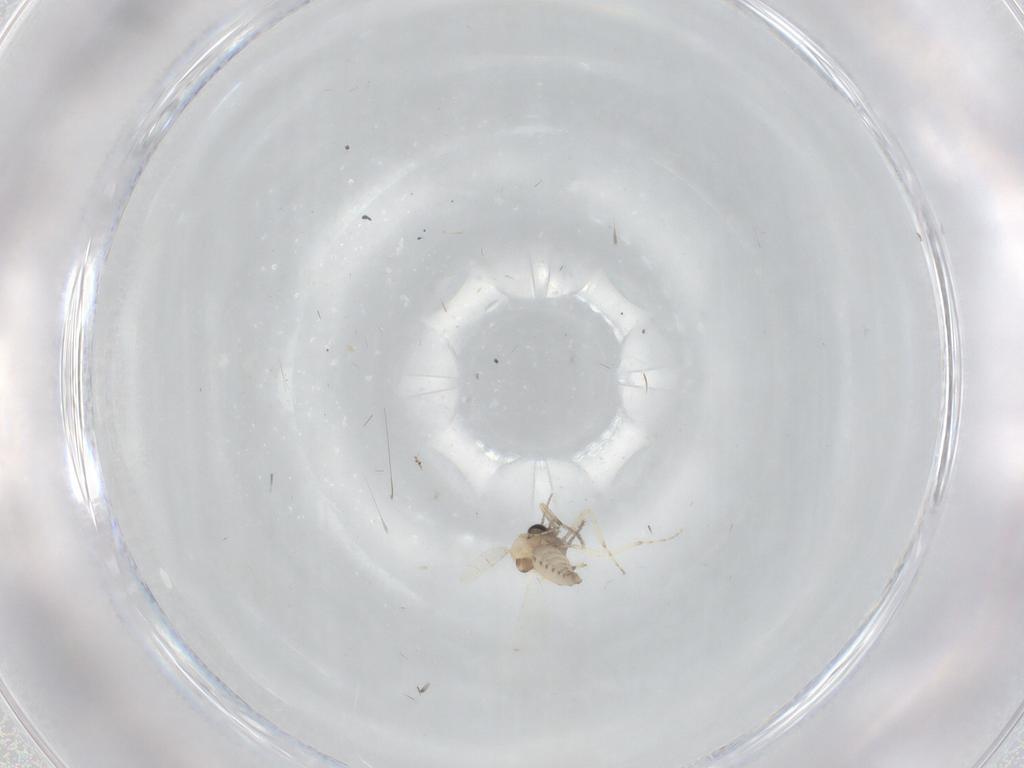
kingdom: Animalia
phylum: Arthropoda
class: Insecta
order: Diptera
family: Ceratopogonidae
